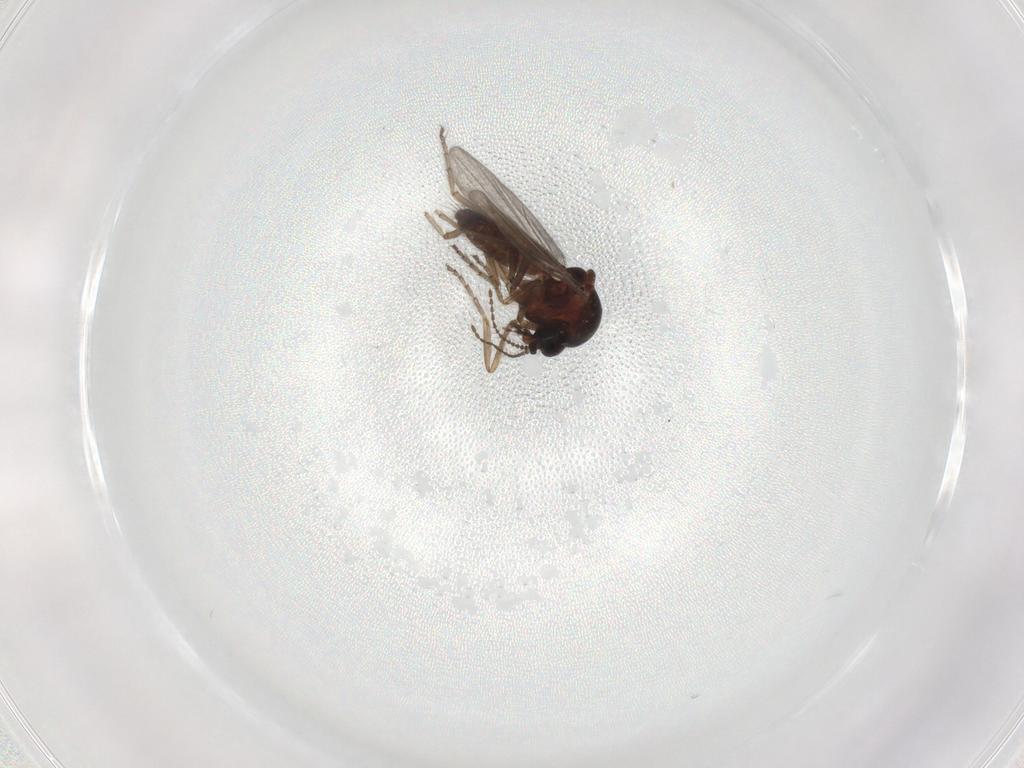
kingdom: Animalia
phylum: Arthropoda
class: Insecta
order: Diptera
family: Ceratopogonidae
